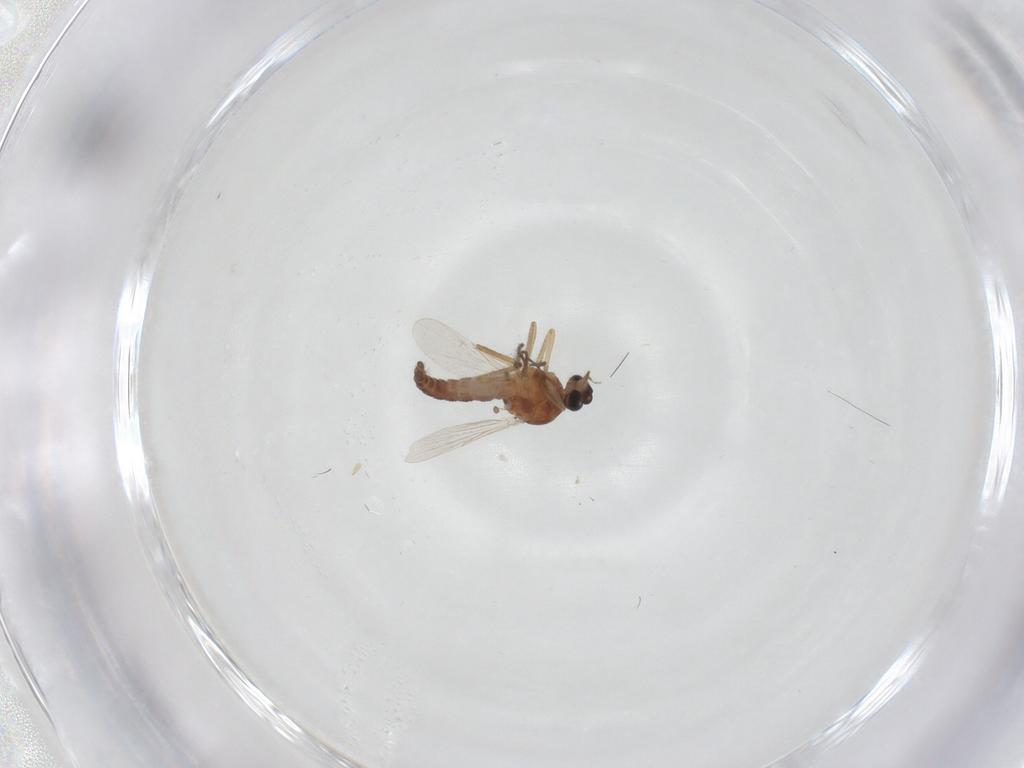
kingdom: Animalia
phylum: Arthropoda
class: Insecta
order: Diptera
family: Ceratopogonidae
